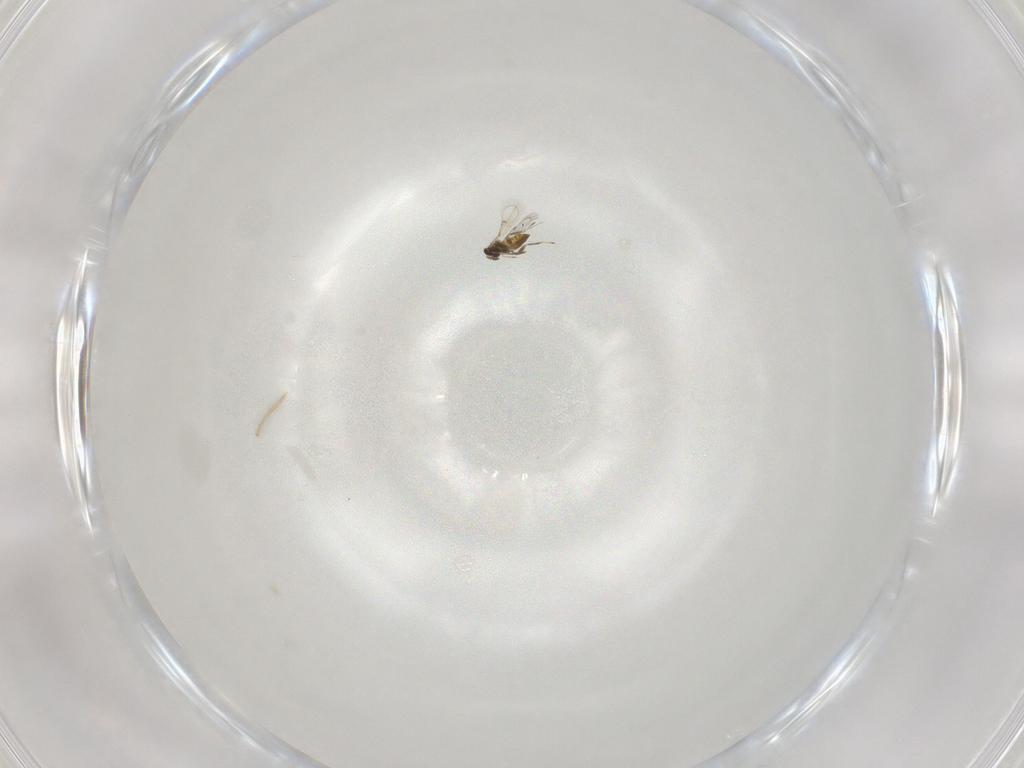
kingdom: Animalia
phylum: Arthropoda
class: Insecta
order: Hymenoptera
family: Trichogrammatidae
